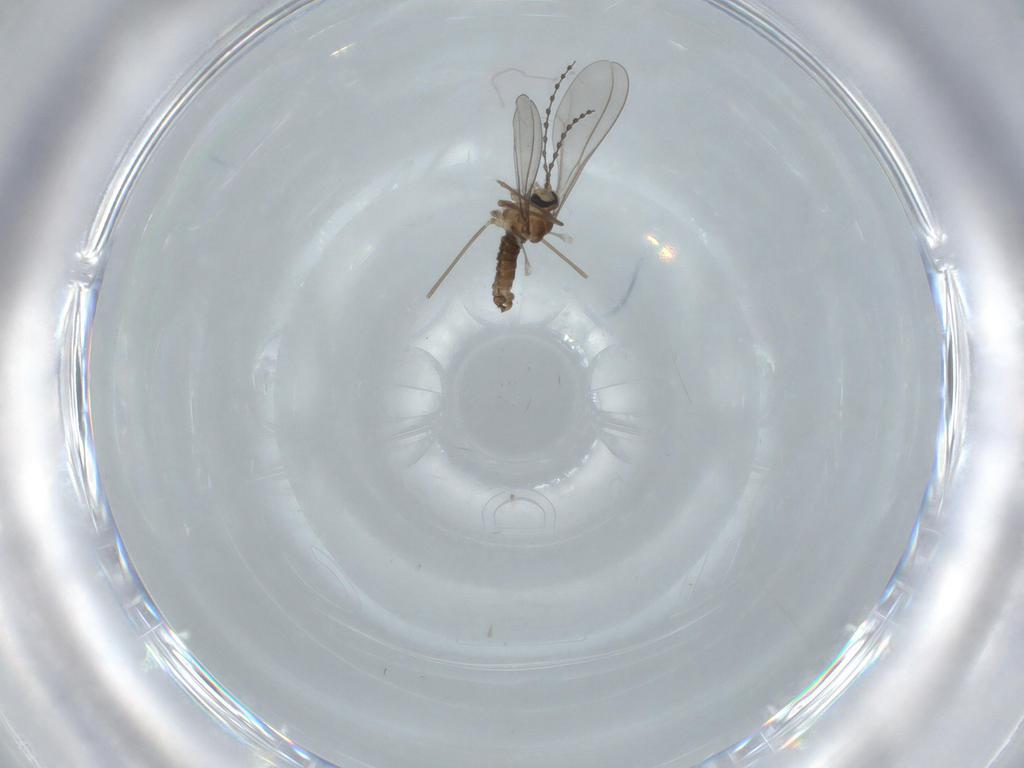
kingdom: Animalia
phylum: Arthropoda
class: Insecta
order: Diptera
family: Cecidomyiidae
